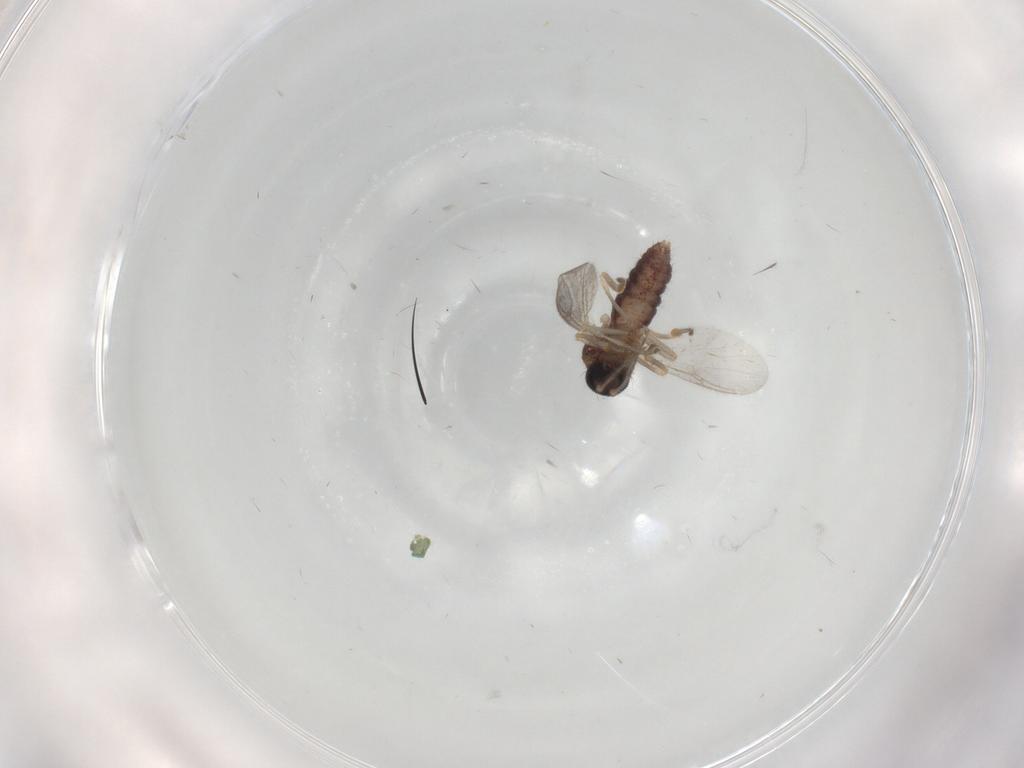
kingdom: Animalia
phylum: Arthropoda
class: Insecta
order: Diptera
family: Ceratopogonidae
